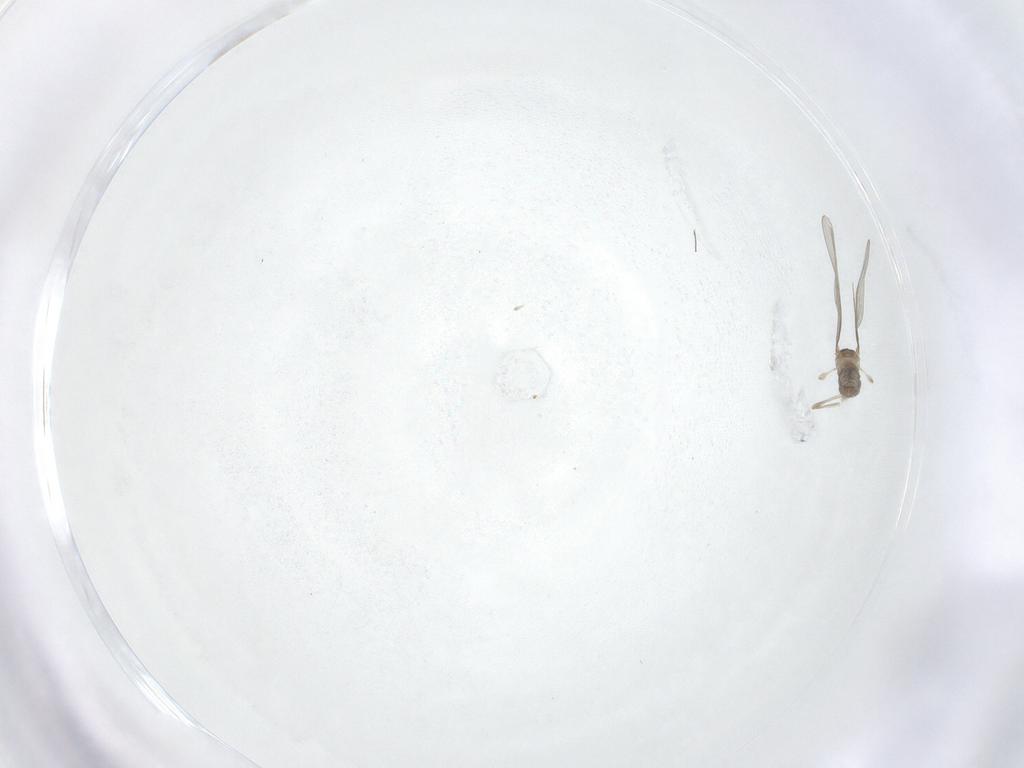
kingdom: Animalia
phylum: Arthropoda
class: Insecta
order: Diptera
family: Cecidomyiidae
